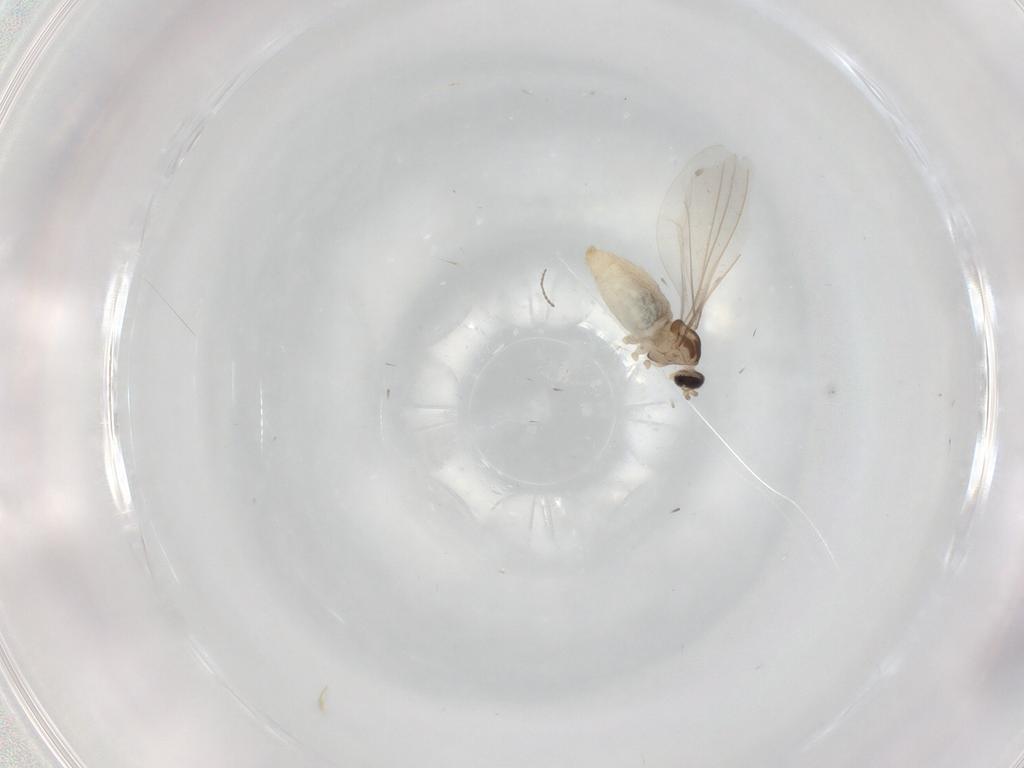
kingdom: Animalia
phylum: Arthropoda
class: Insecta
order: Diptera
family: Cecidomyiidae
